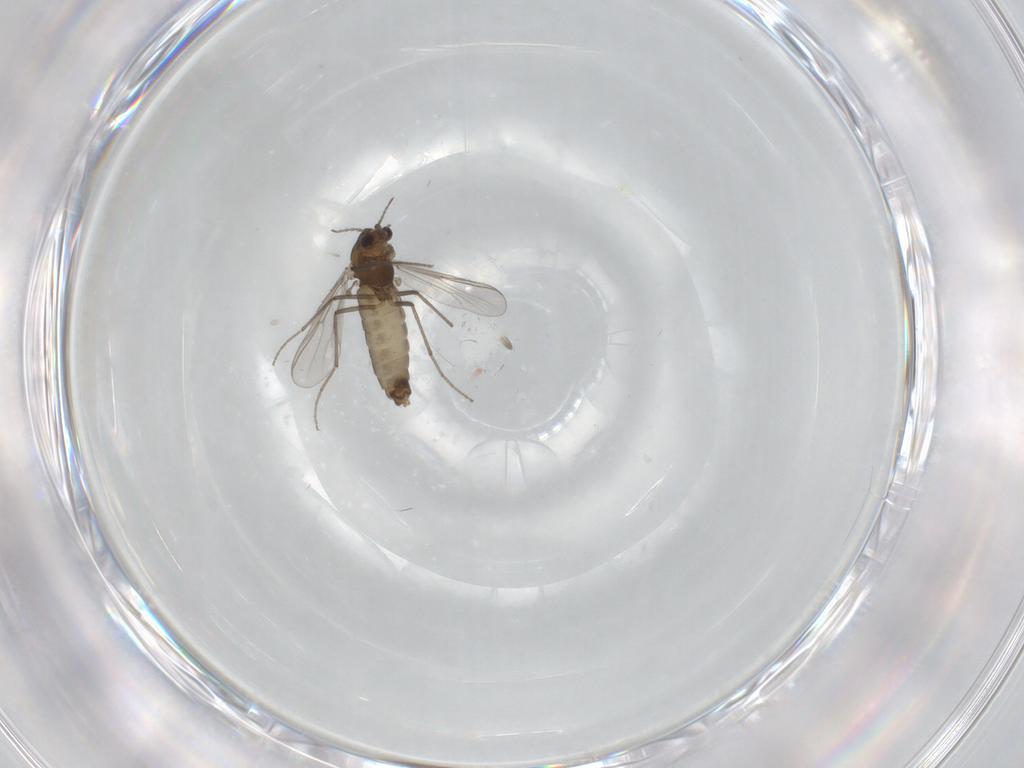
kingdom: Animalia
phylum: Arthropoda
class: Insecta
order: Diptera
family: Chironomidae
